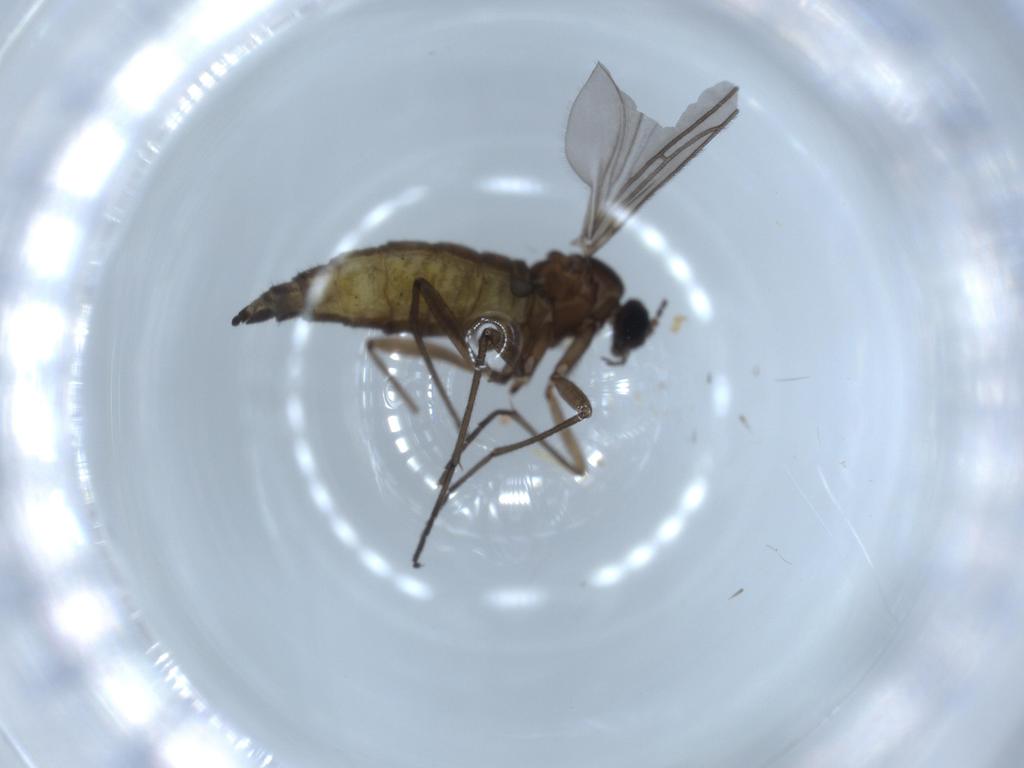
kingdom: Animalia
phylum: Arthropoda
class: Insecta
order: Diptera
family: Sciaridae
